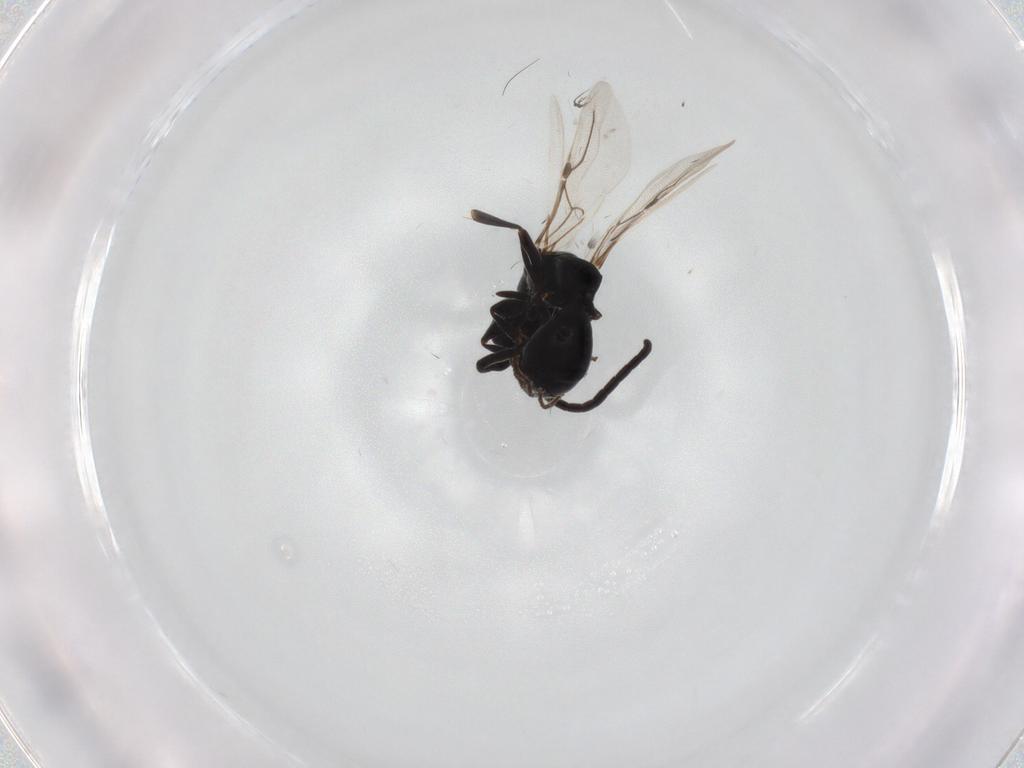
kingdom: Animalia
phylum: Arthropoda
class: Insecta
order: Hymenoptera
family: Bethylidae
